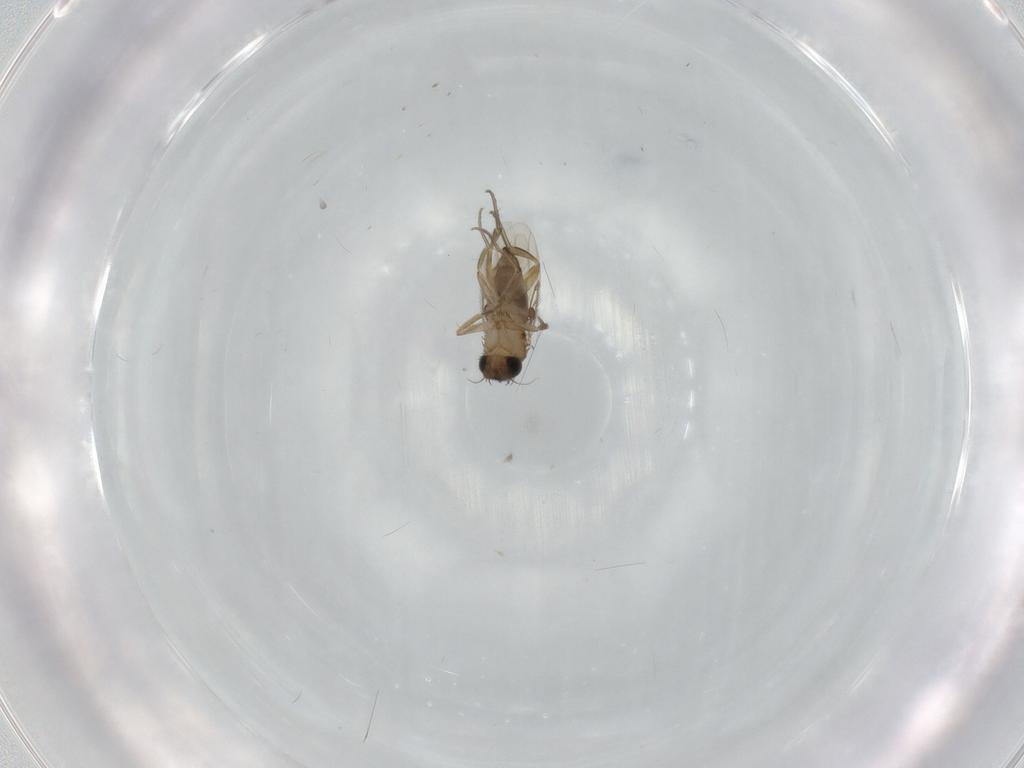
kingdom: Animalia
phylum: Arthropoda
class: Insecta
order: Diptera
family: Phoridae
